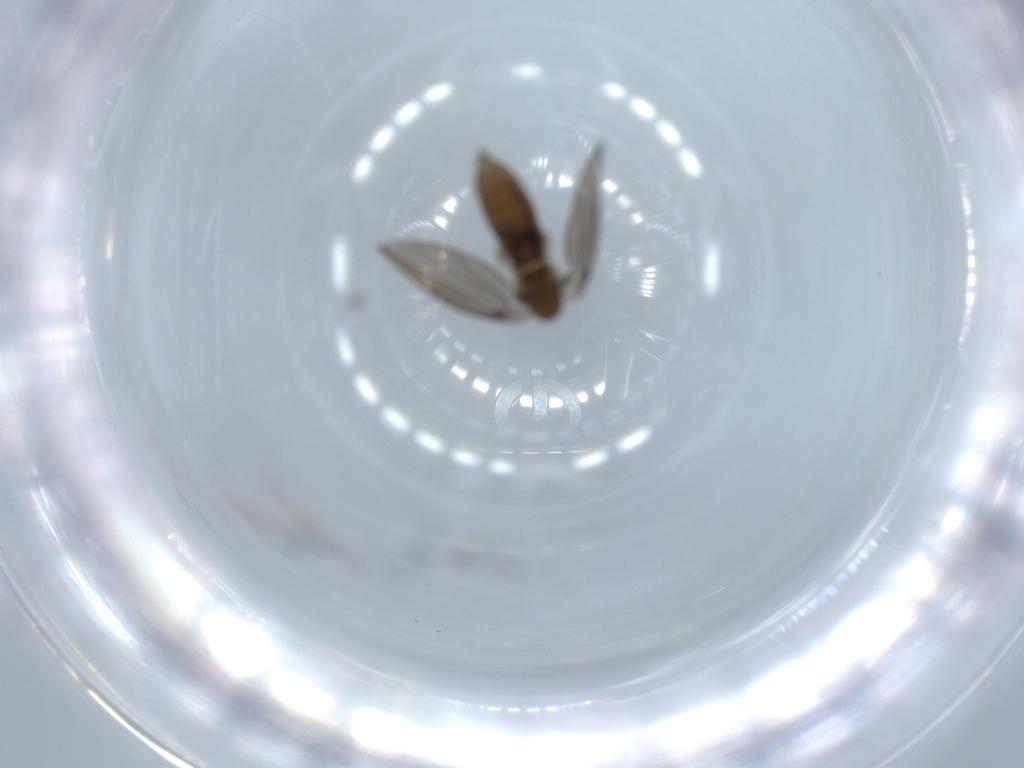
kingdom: Animalia
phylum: Arthropoda
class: Insecta
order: Diptera
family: Psychodidae
